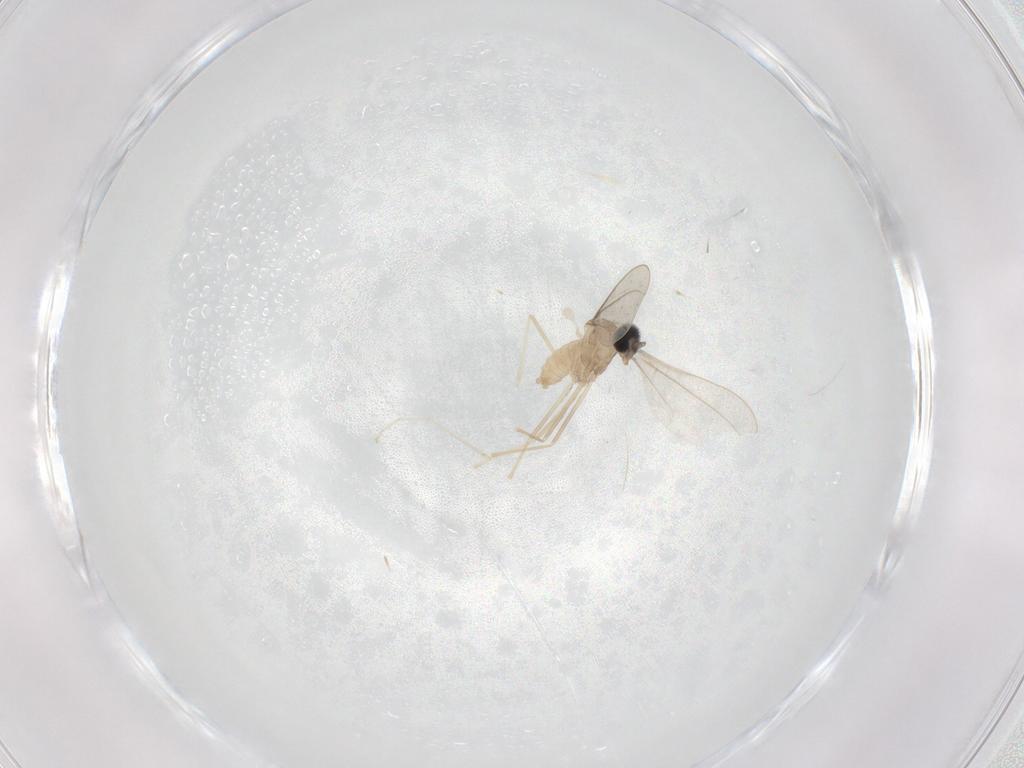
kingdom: Animalia
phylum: Arthropoda
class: Insecta
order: Diptera
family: Cecidomyiidae
